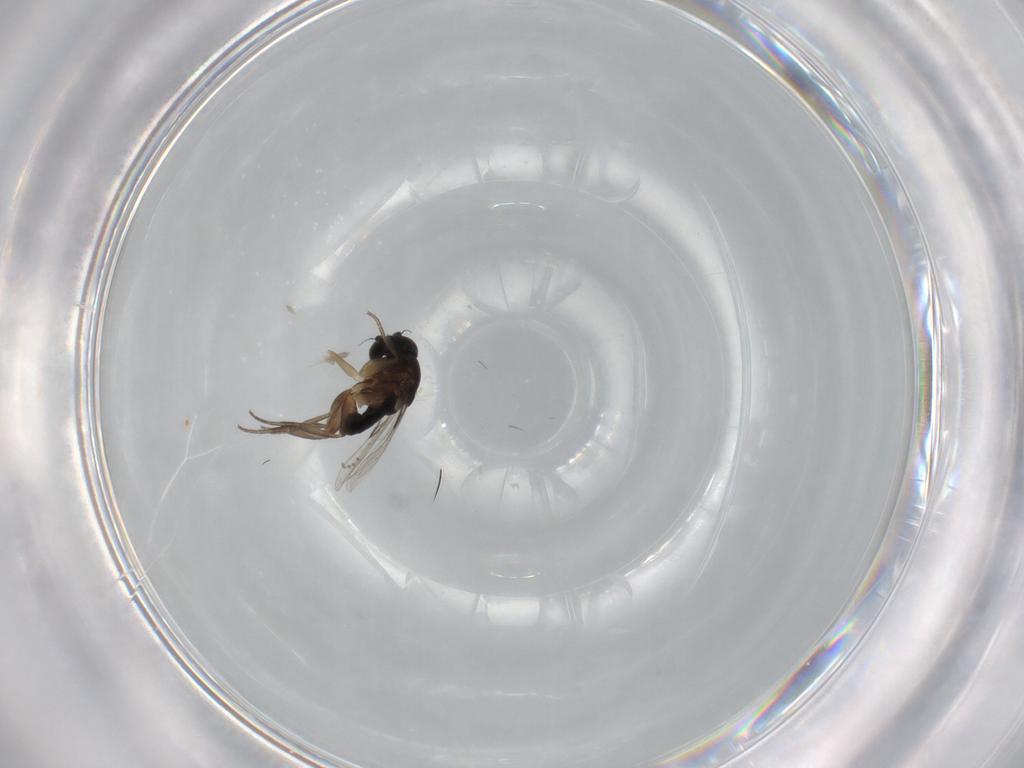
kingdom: Animalia
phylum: Arthropoda
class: Insecta
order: Diptera
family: Phoridae
